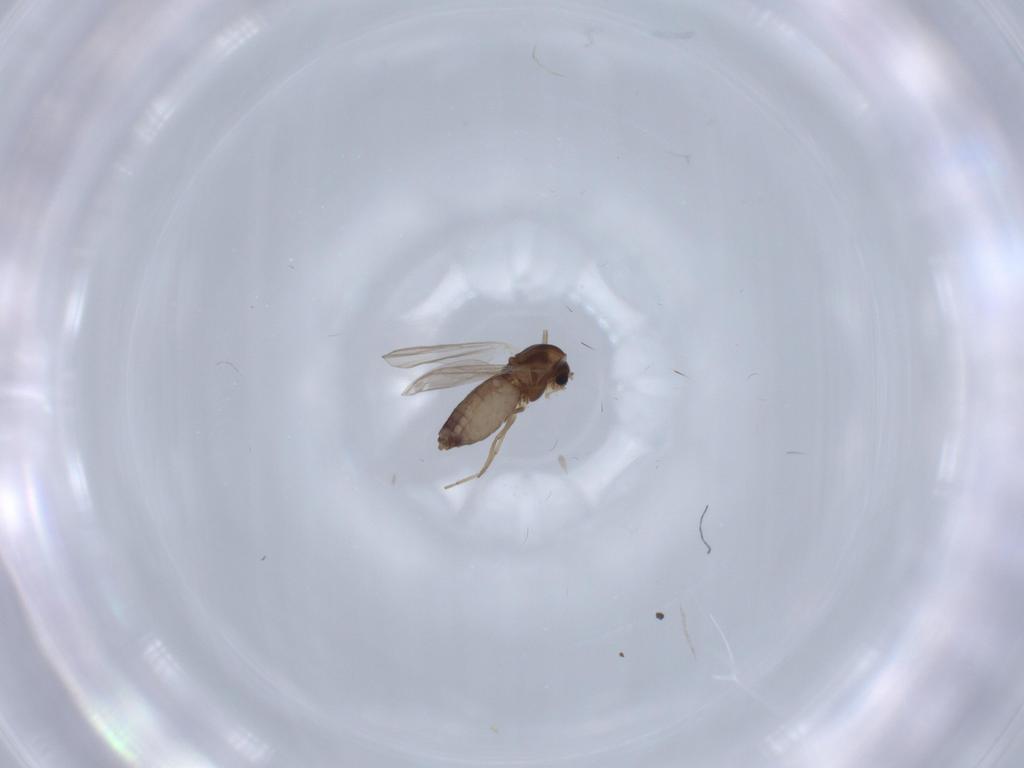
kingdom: Animalia
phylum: Arthropoda
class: Insecta
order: Diptera
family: Chironomidae
